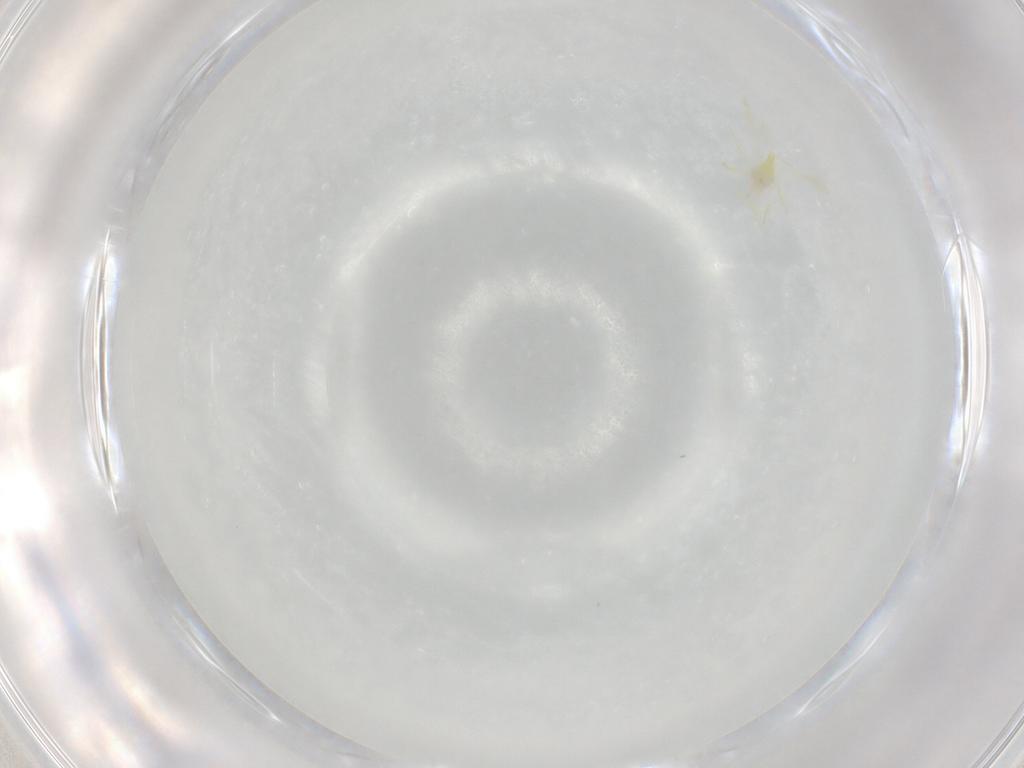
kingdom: Animalia
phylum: Arthropoda
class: Insecta
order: Hemiptera
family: Aleyrodidae
